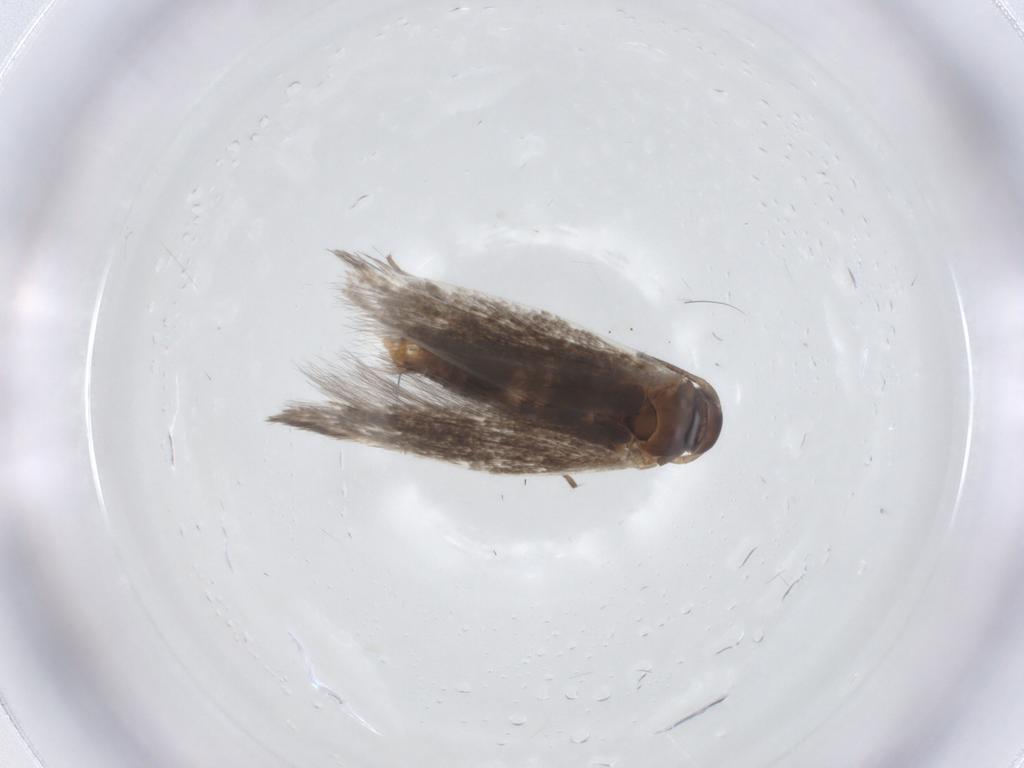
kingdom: Animalia
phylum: Arthropoda
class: Insecta
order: Lepidoptera
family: Elachistidae
